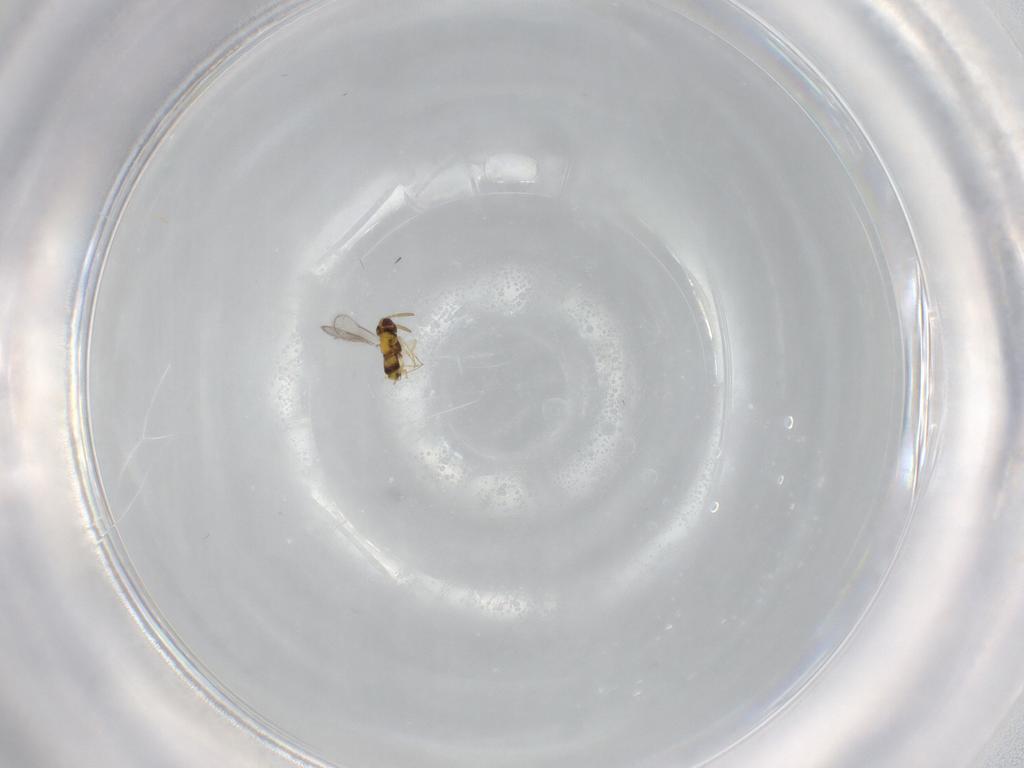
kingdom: Animalia
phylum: Arthropoda
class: Insecta
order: Hymenoptera
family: Aphelinidae
